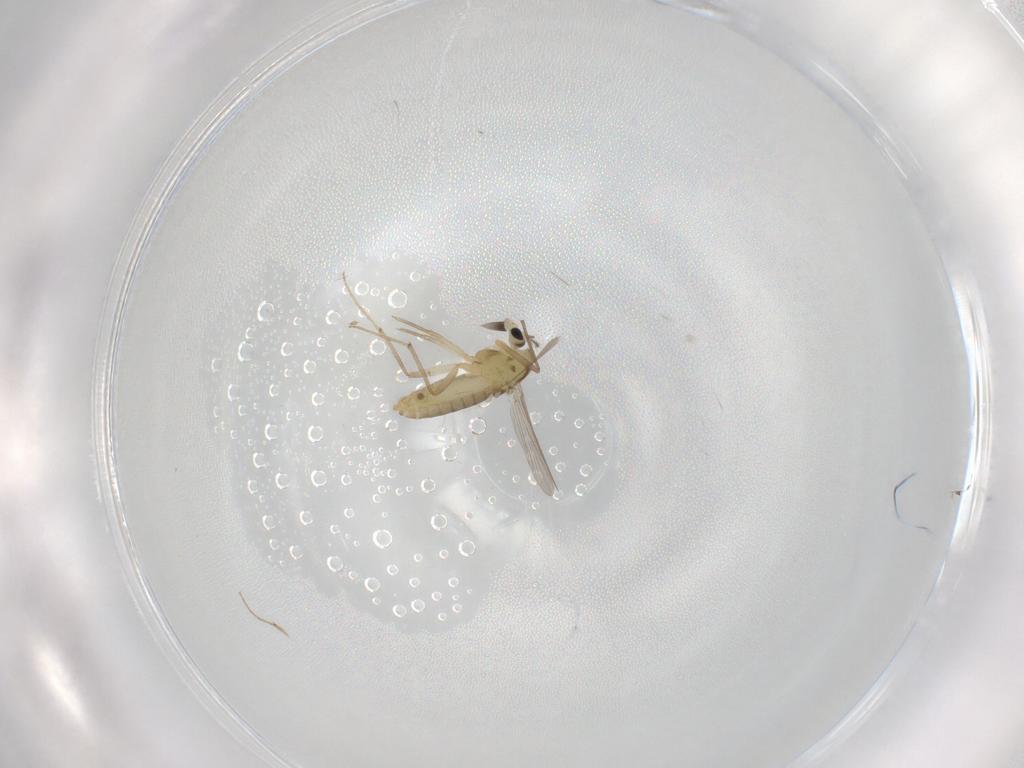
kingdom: Animalia
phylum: Arthropoda
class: Insecta
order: Diptera
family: Chironomidae
